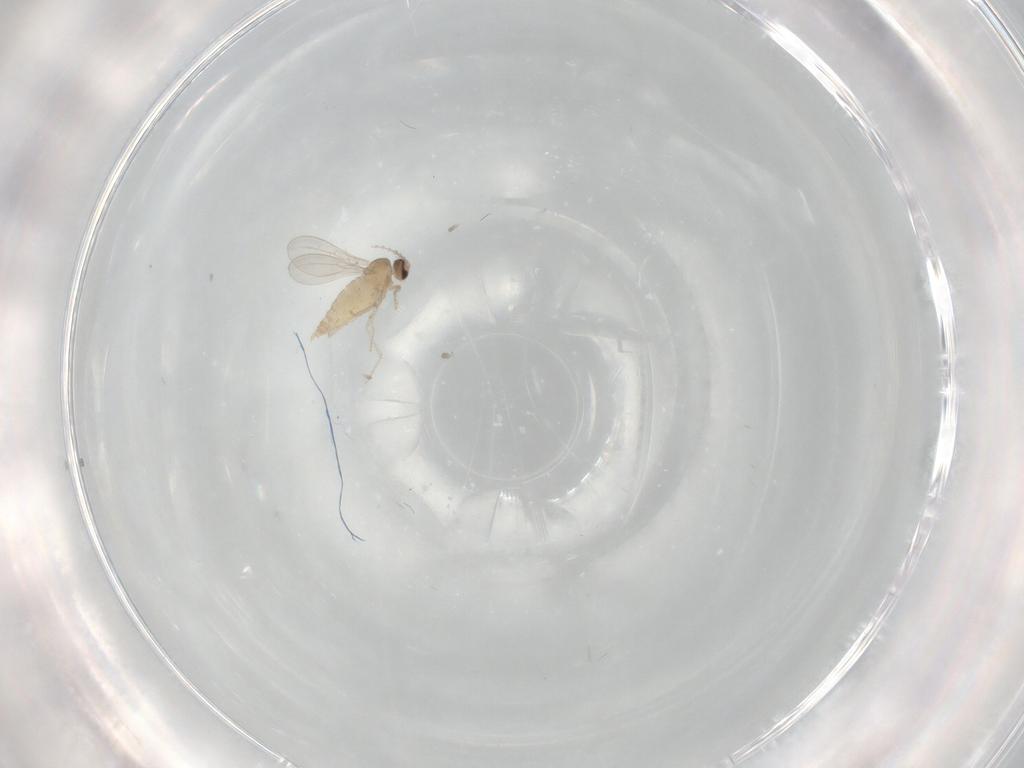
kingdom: Animalia
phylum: Arthropoda
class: Insecta
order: Diptera
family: Cecidomyiidae
